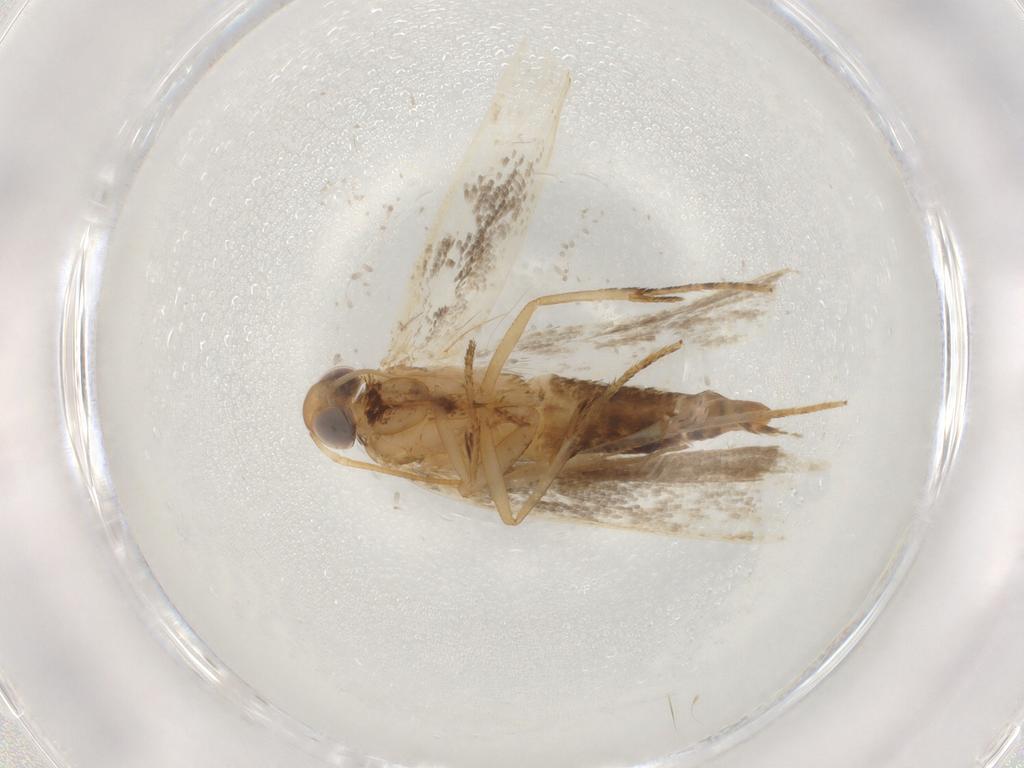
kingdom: Animalia
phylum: Arthropoda
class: Insecta
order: Lepidoptera
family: Gelechiidae
